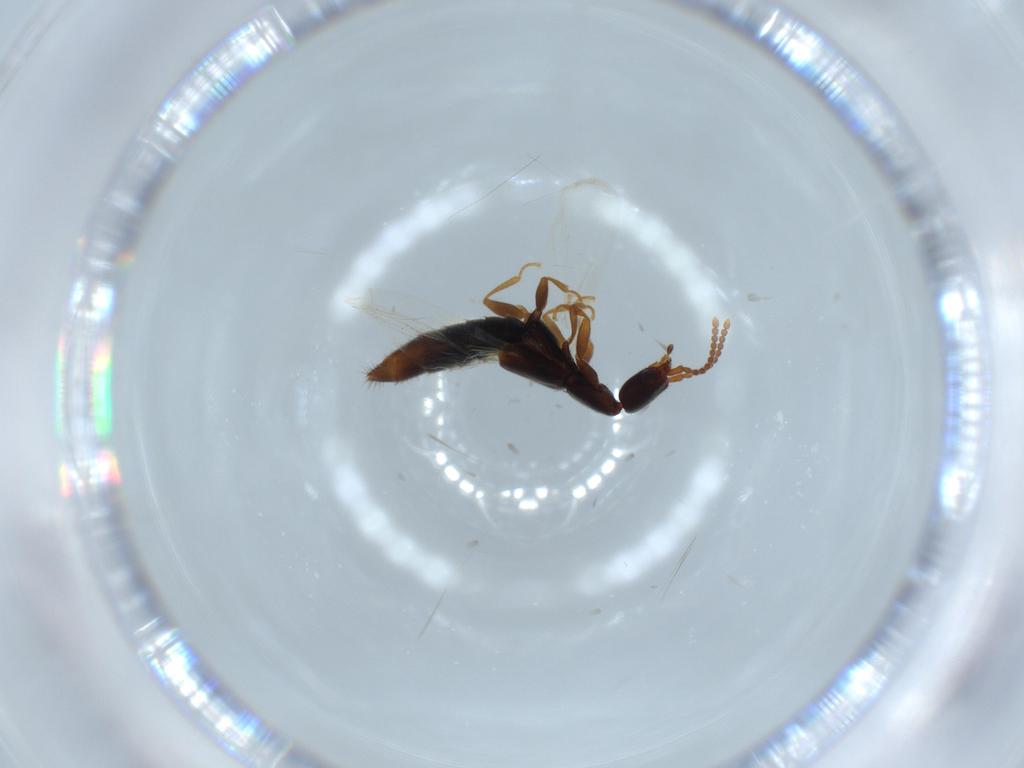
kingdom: Animalia
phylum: Arthropoda
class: Insecta
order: Coleoptera
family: Staphylinidae
